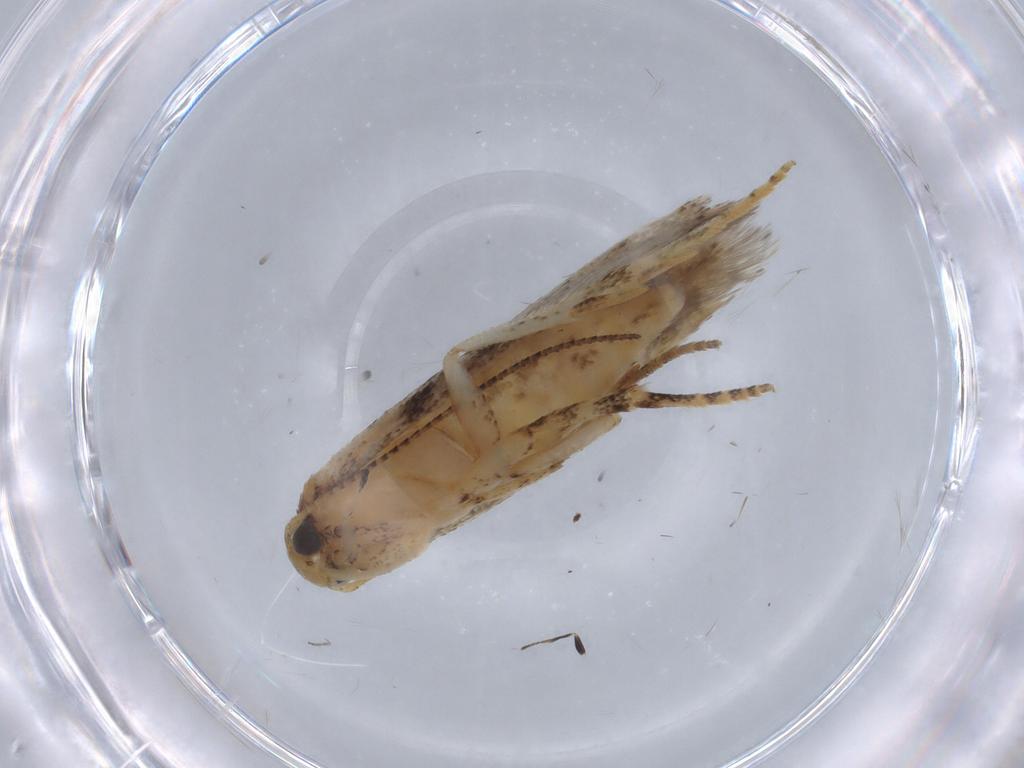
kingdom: Animalia
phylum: Arthropoda
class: Insecta
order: Lepidoptera
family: Gelechiidae
